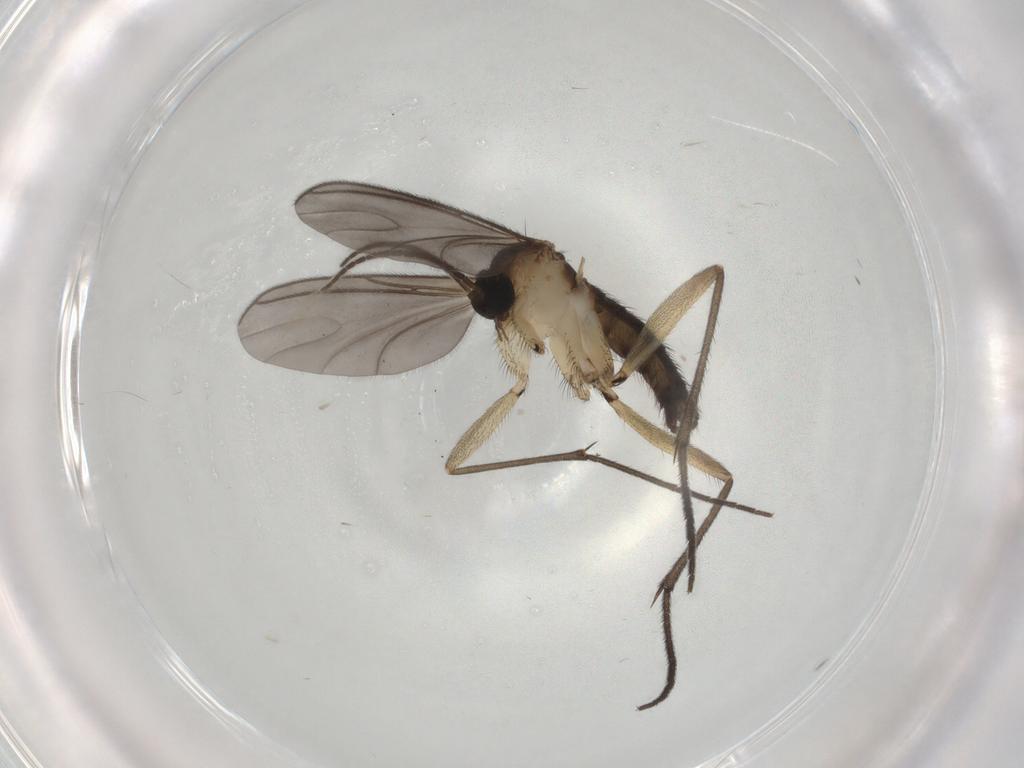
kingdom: Animalia
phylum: Arthropoda
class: Insecta
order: Diptera
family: Sciaridae
